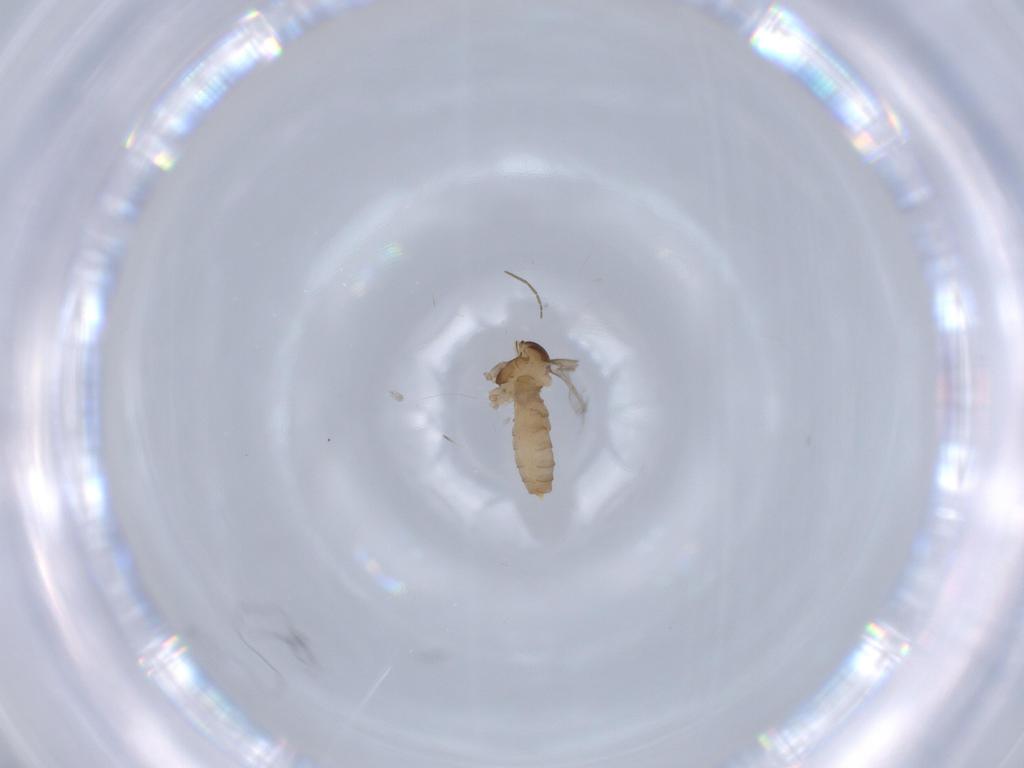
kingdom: Animalia
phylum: Arthropoda
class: Insecta
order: Diptera
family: Cecidomyiidae
